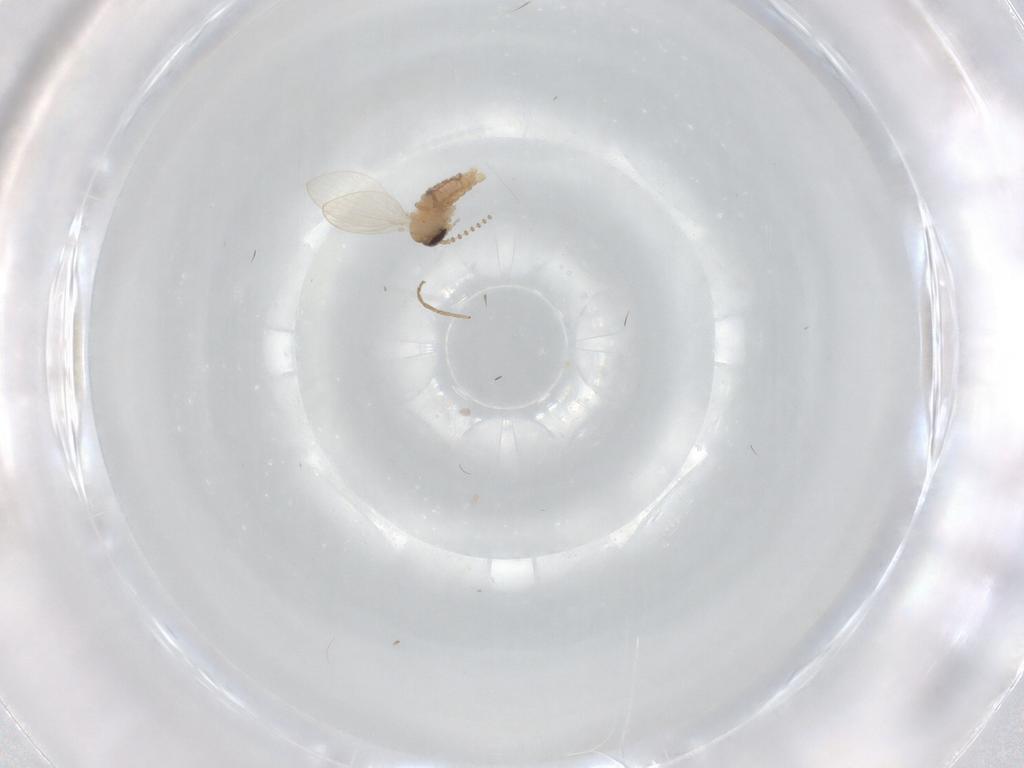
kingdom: Animalia
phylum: Arthropoda
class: Insecta
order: Diptera
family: Psychodidae
